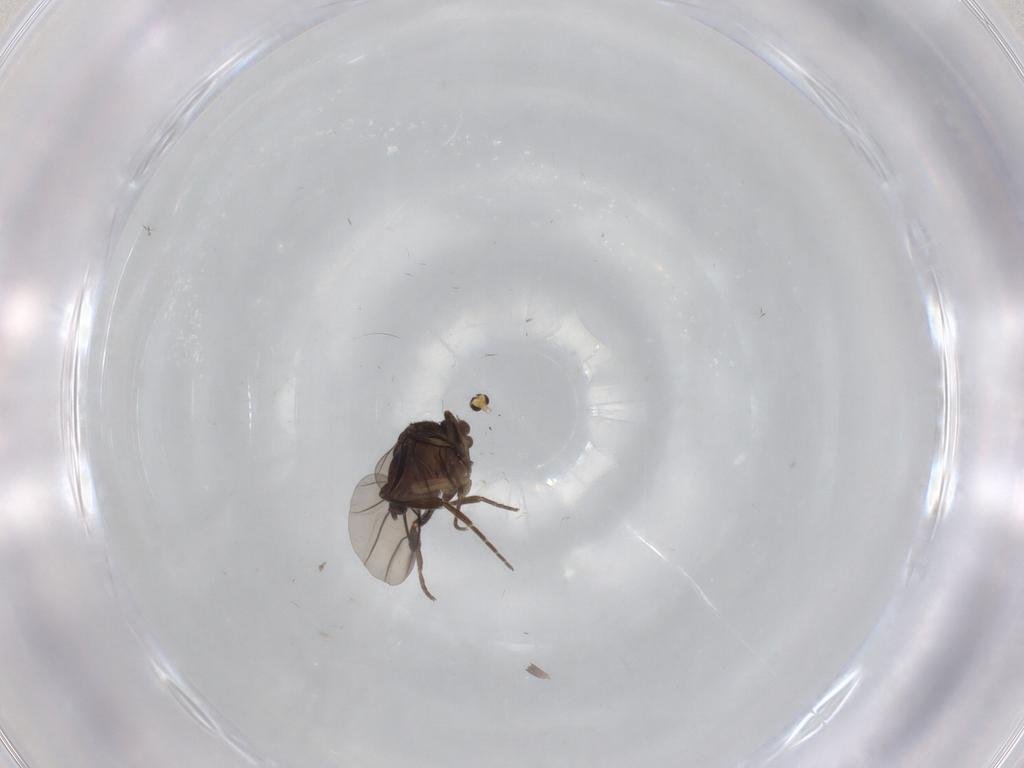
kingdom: Animalia
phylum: Arthropoda
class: Insecta
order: Diptera
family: Phoridae
